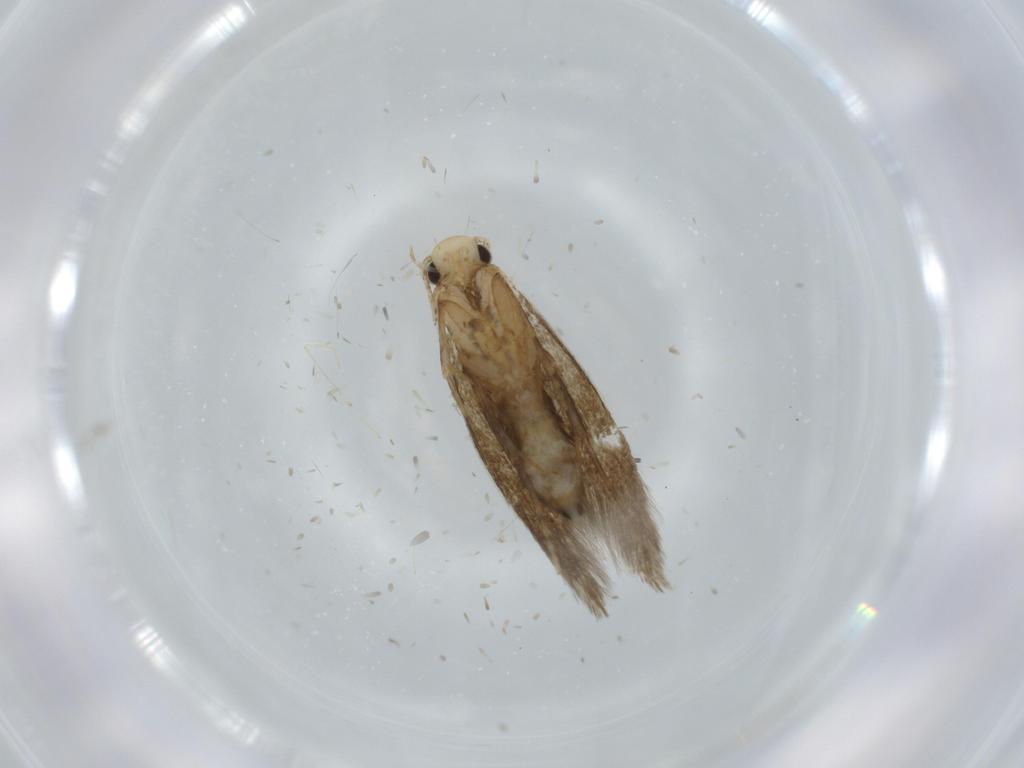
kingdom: Animalia
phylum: Arthropoda
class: Insecta
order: Lepidoptera
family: Tineidae
